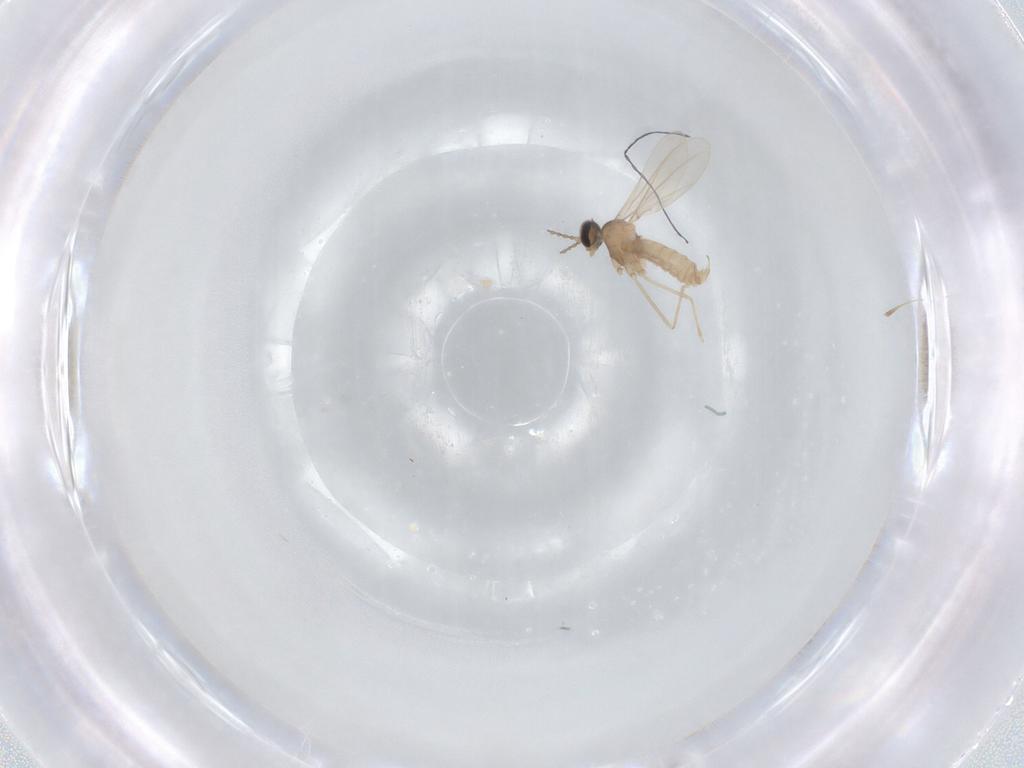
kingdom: Animalia
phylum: Arthropoda
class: Insecta
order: Diptera
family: Cecidomyiidae
